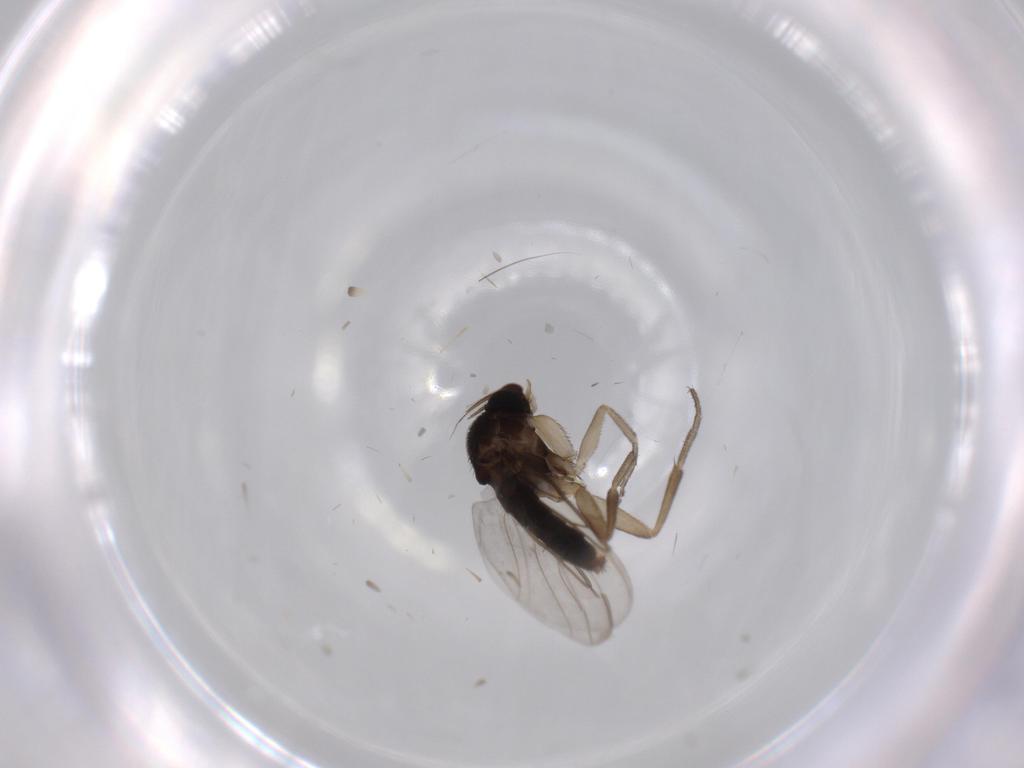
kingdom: Animalia
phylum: Arthropoda
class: Insecta
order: Diptera
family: Phoridae
